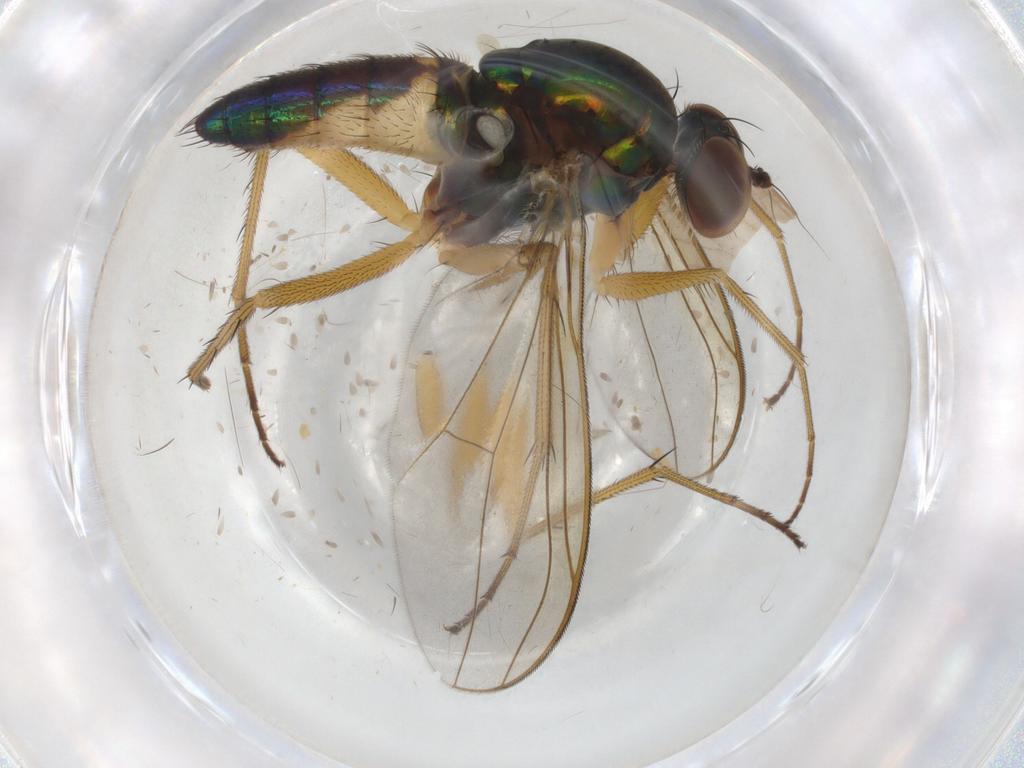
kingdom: Animalia
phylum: Arthropoda
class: Insecta
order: Diptera
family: Sciaridae
